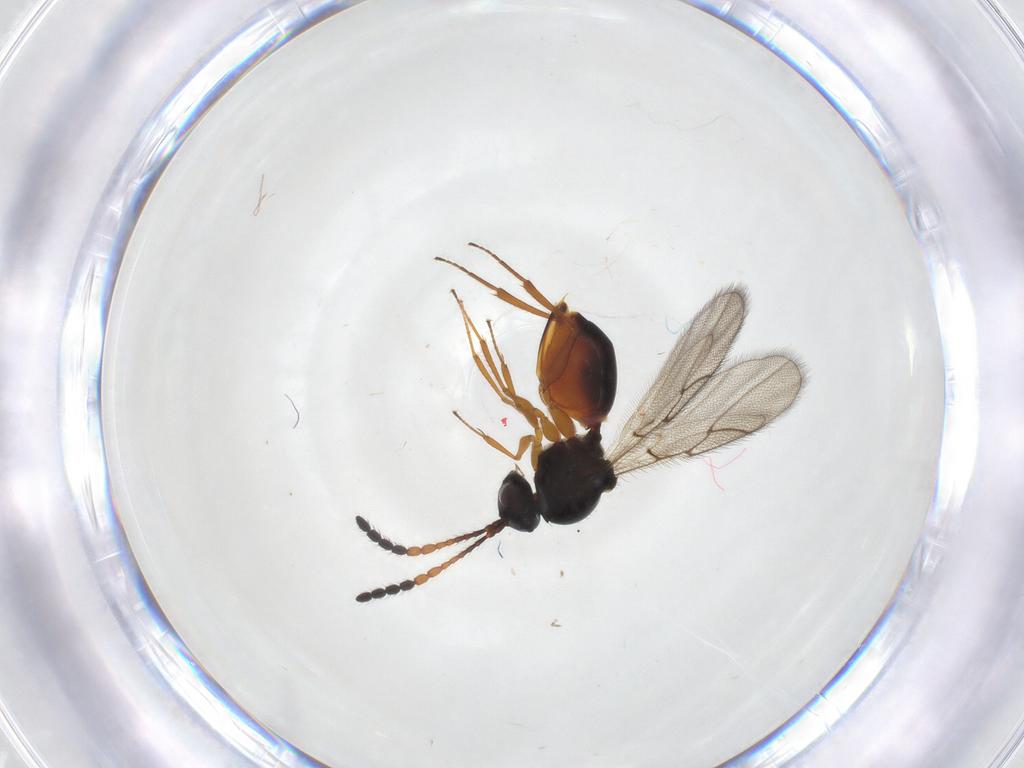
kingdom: Animalia
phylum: Arthropoda
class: Insecta
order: Hymenoptera
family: Figitidae
